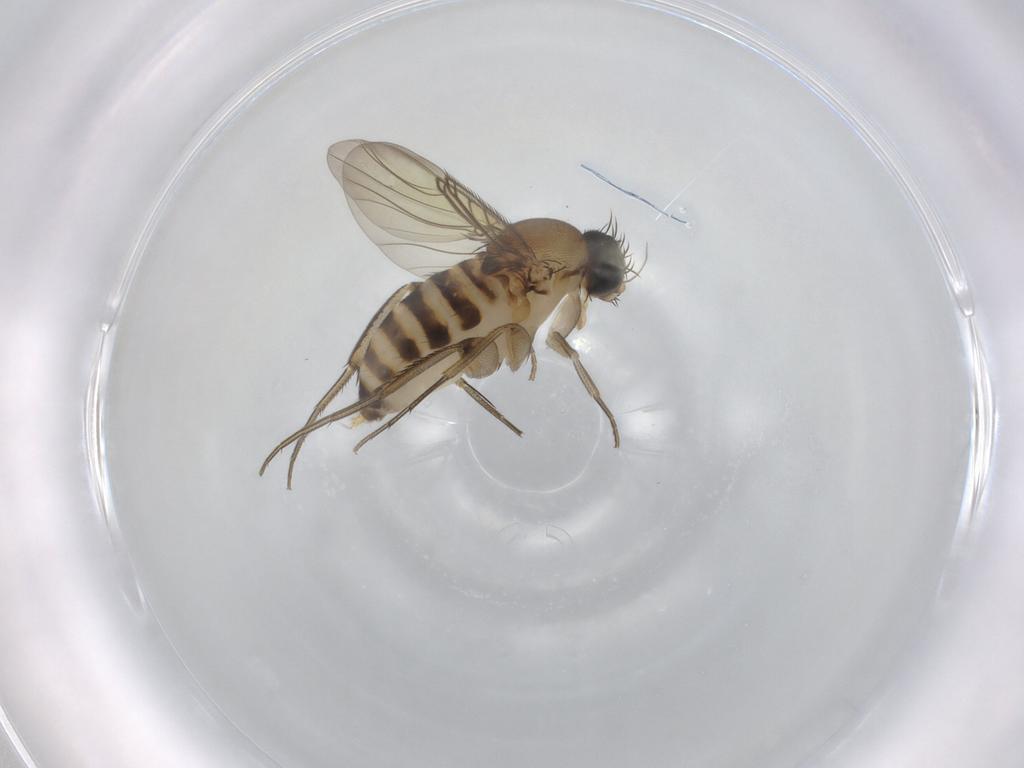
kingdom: Animalia
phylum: Arthropoda
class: Insecta
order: Diptera
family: Phoridae
